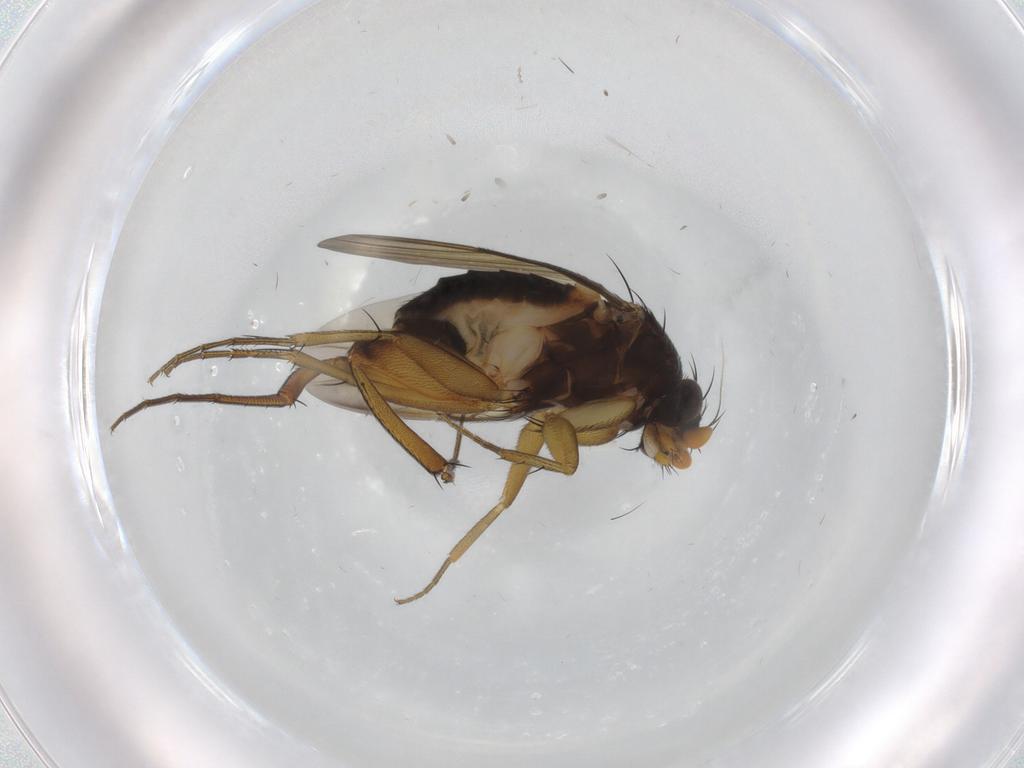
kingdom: Animalia
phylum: Arthropoda
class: Insecta
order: Diptera
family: Phoridae
